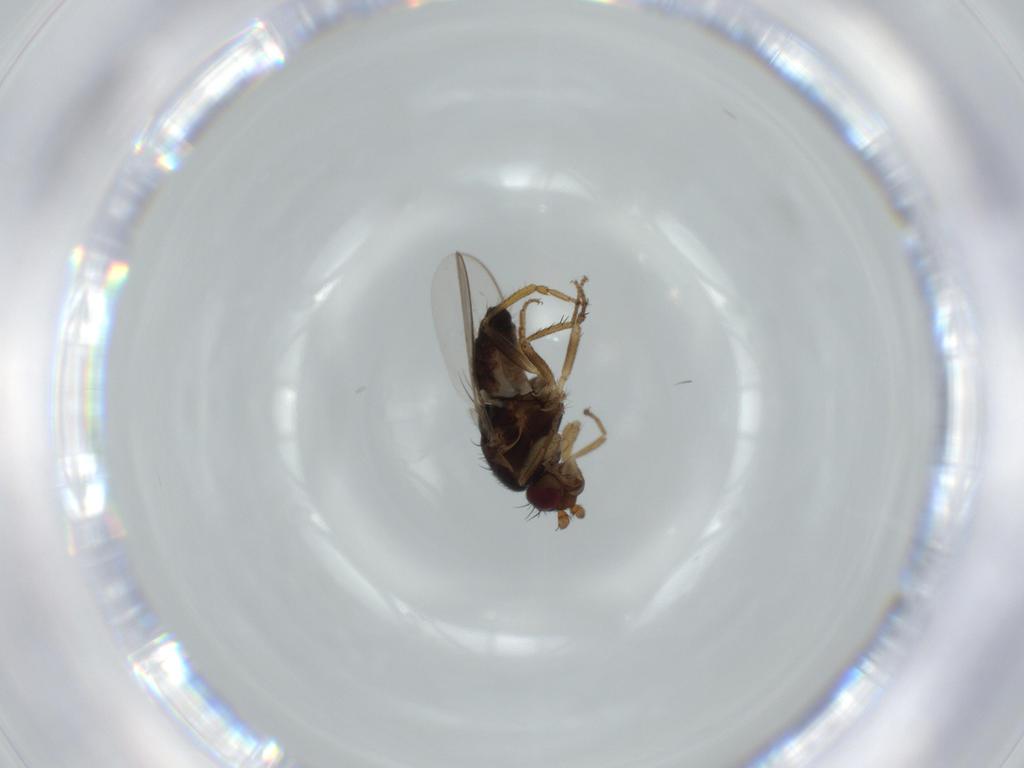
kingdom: Animalia
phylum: Arthropoda
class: Insecta
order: Diptera
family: Sphaeroceridae
